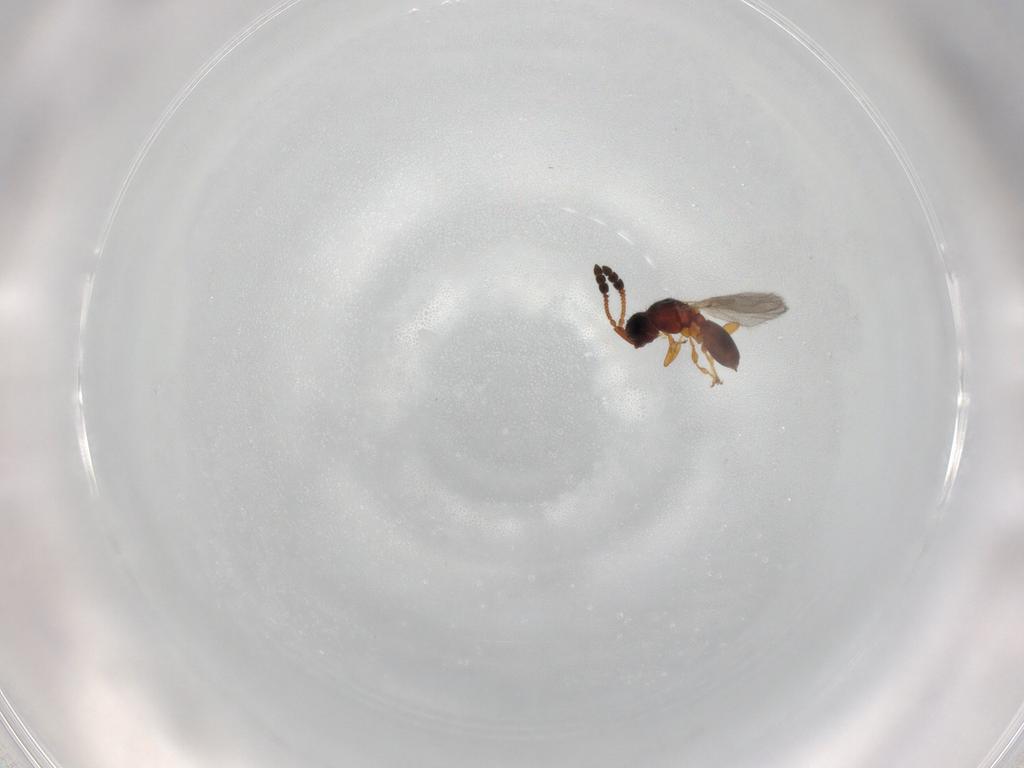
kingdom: Animalia
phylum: Arthropoda
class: Insecta
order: Hymenoptera
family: Diapriidae
